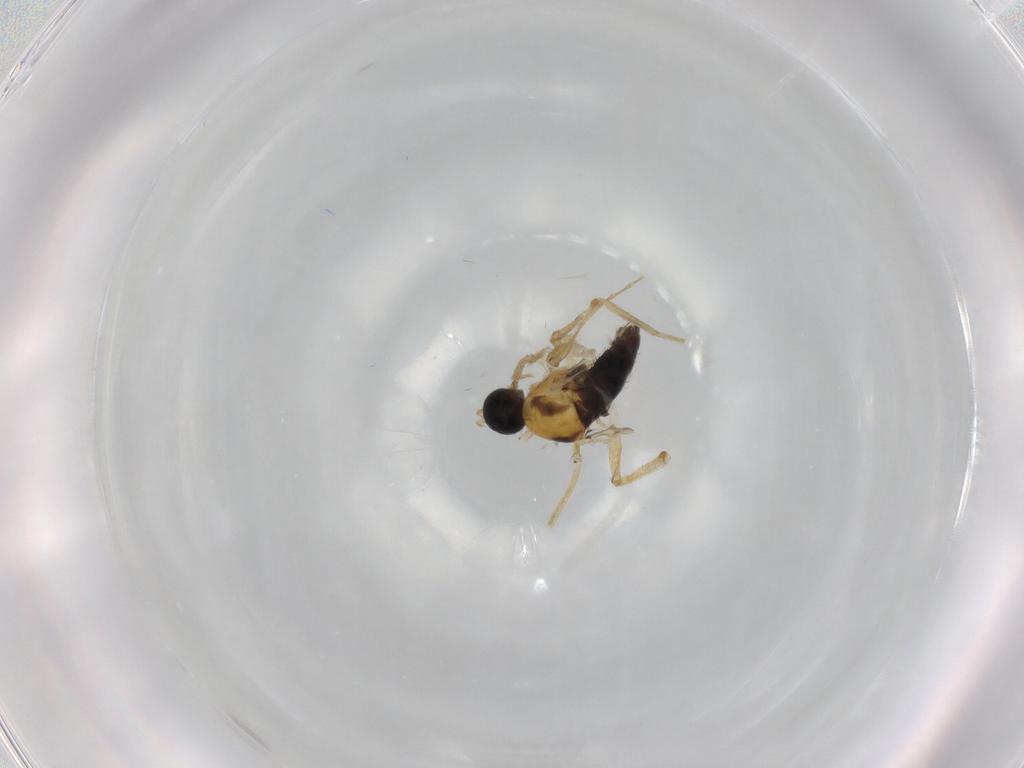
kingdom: Animalia
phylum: Arthropoda
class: Insecta
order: Diptera
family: Hybotidae
